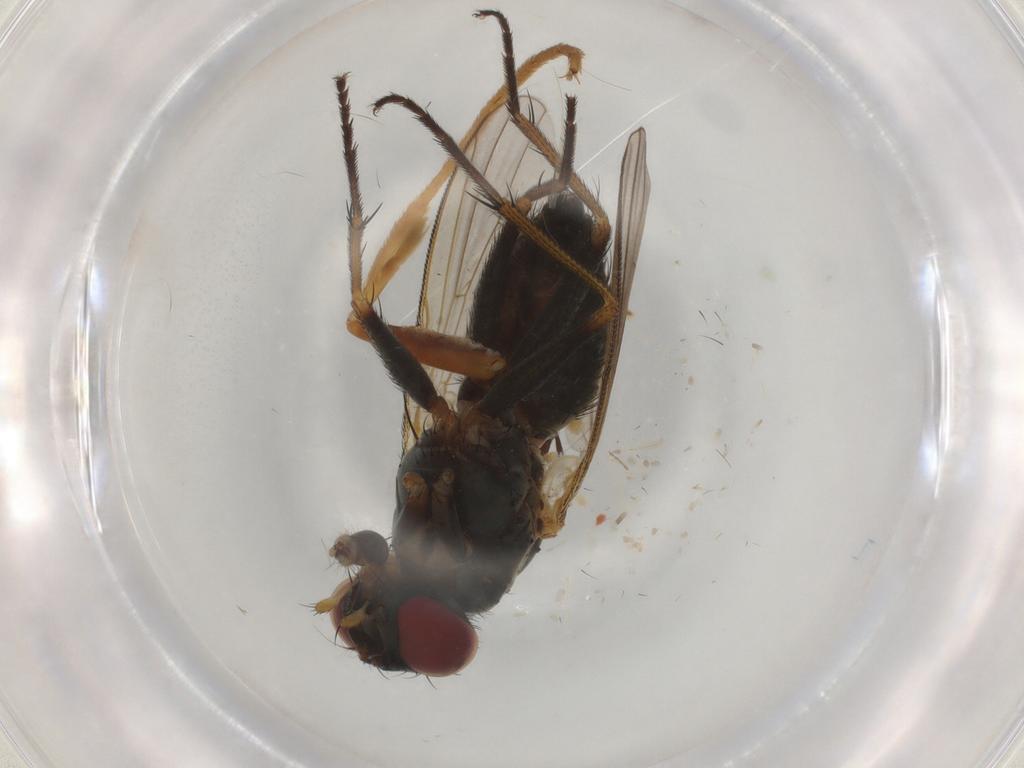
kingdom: Animalia
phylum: Arthropoda
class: Insecta
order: Diptera
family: Muscidae
